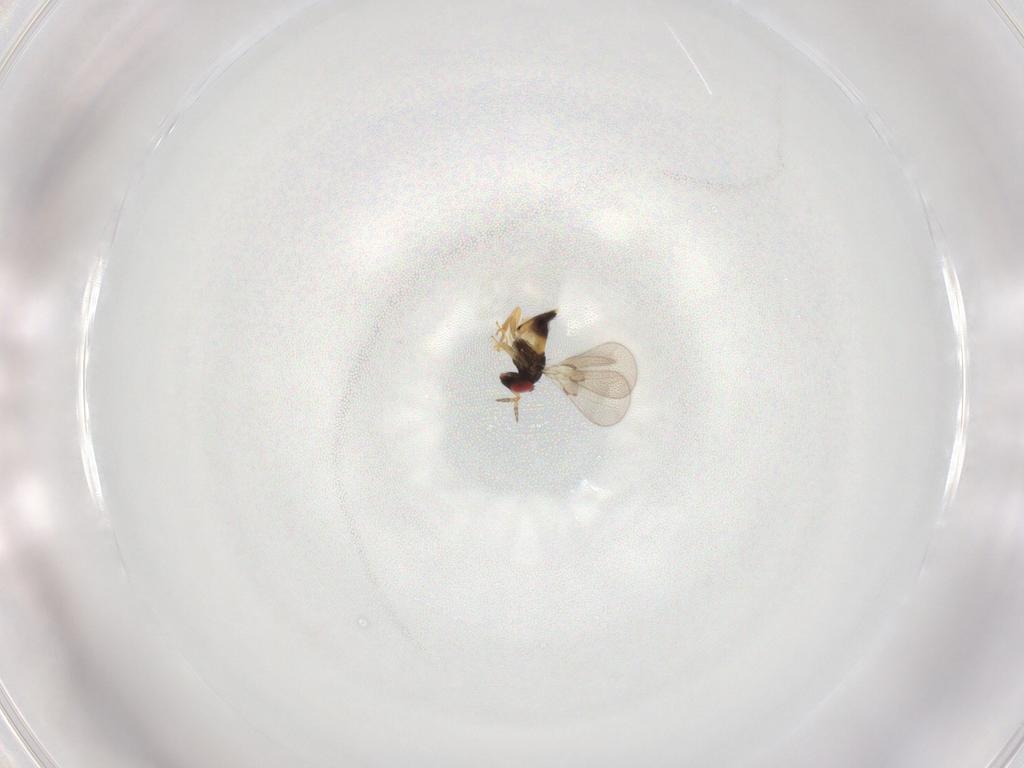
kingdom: Animalia
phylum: Arthropoda
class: Insecta
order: Hymenoptera
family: Trichogrammatidae
